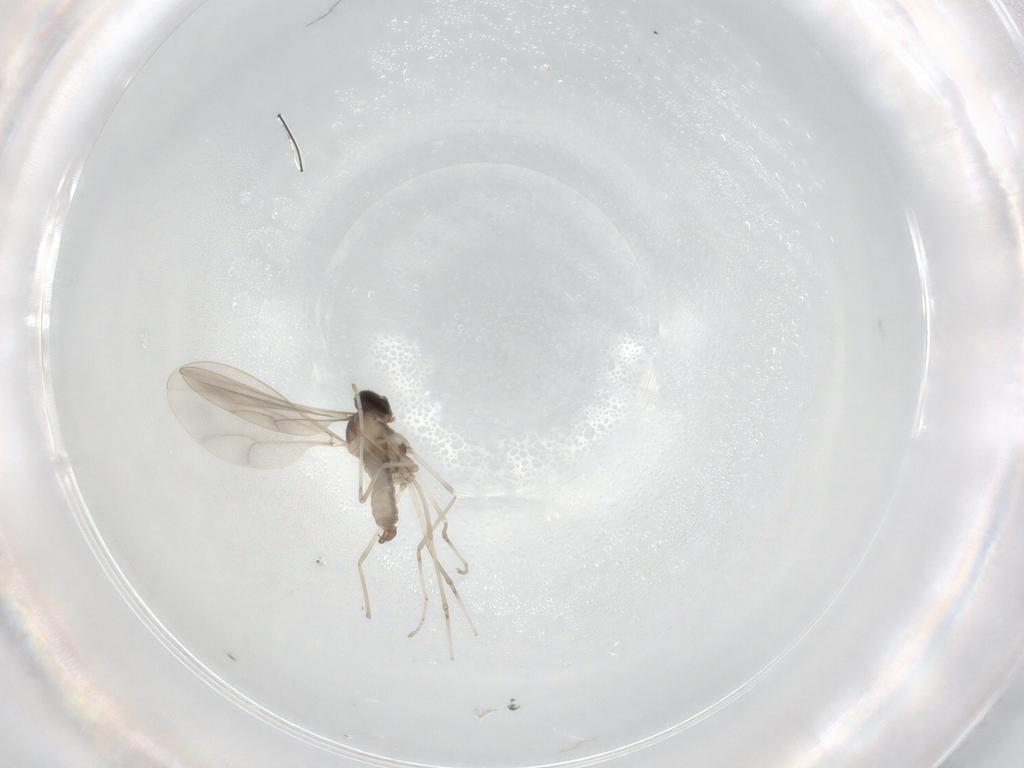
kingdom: Animalia
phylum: Arthropoda
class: Insecta
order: Diptera
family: Cecidomyiidae
